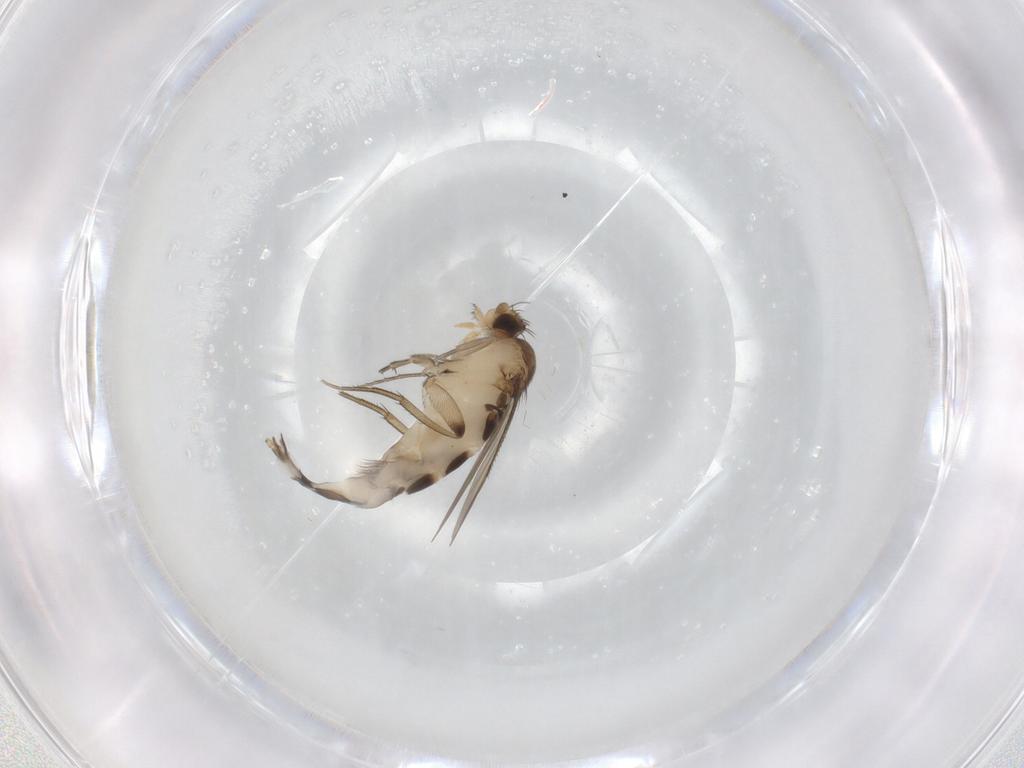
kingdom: Animalia
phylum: Arthropoda
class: Insecta
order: Diptera
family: Phoridae
